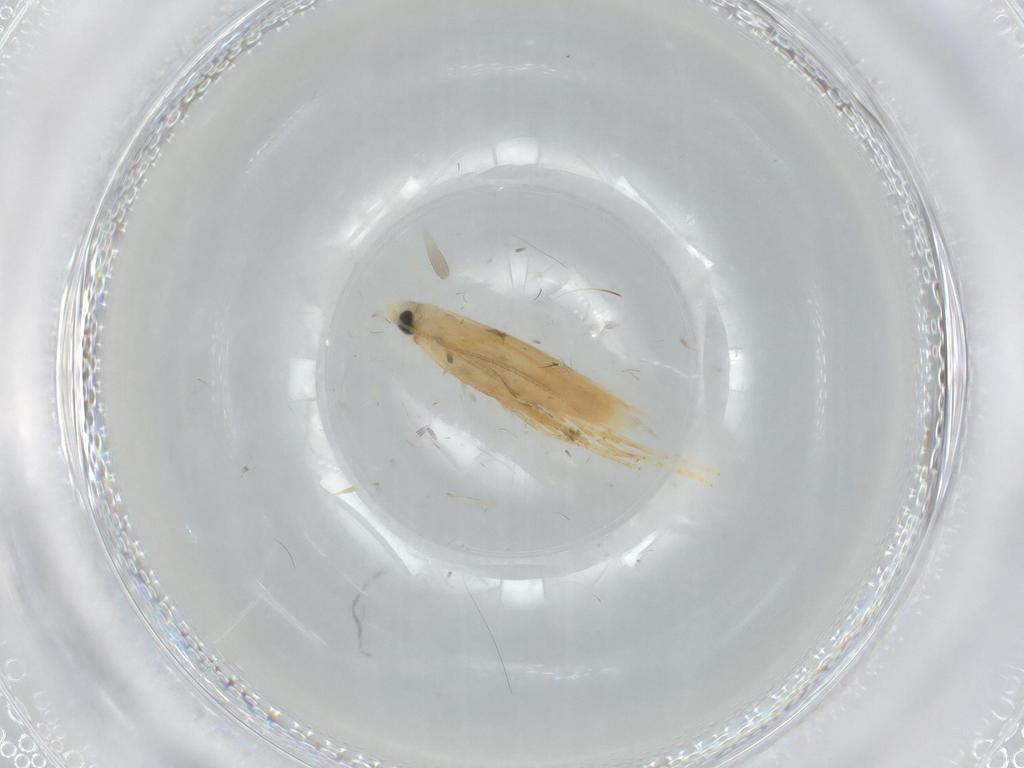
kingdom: Animalia
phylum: Arthropoda
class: Insecta
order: Lepidoptera
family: Tischeriidae
